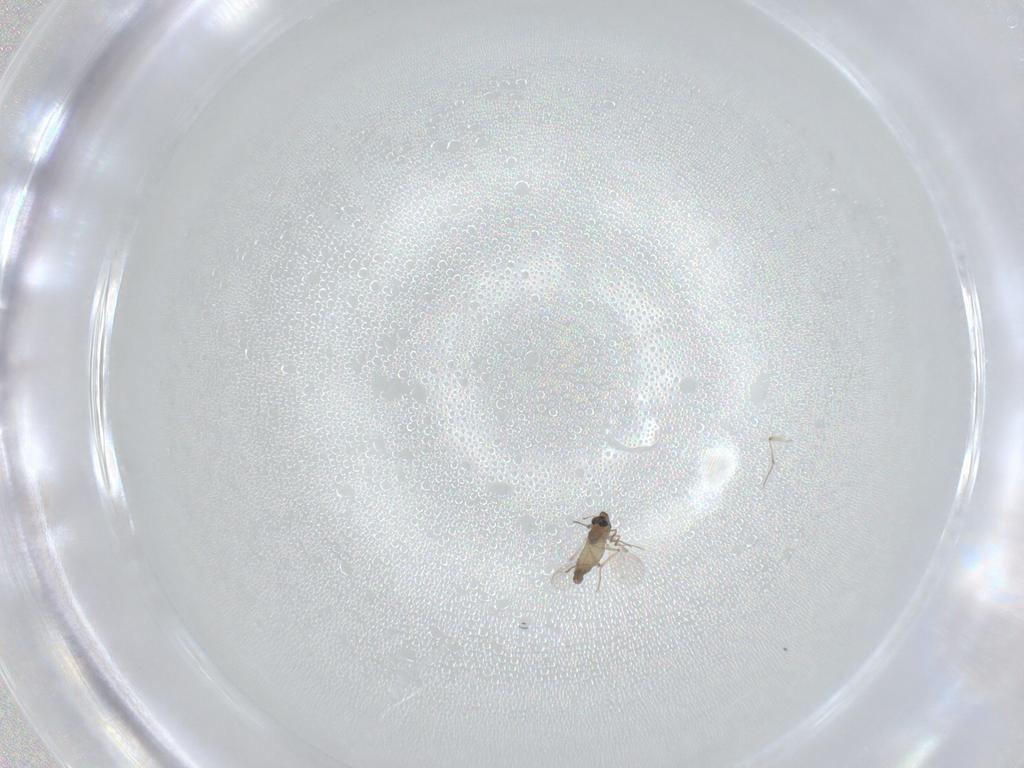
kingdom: Animalia
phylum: Arthropoda
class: Insecta
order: Diptera
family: Chironomidae
